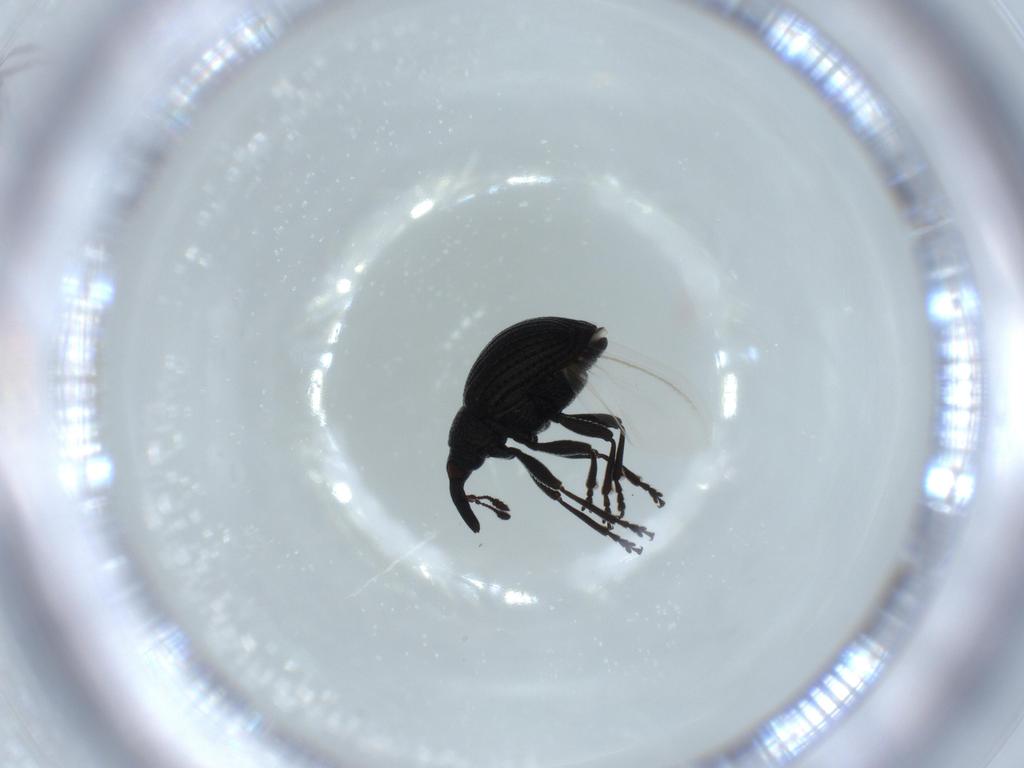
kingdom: Animalia
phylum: Arthropoda
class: Insecta
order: Coleoptera
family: Brentidae
